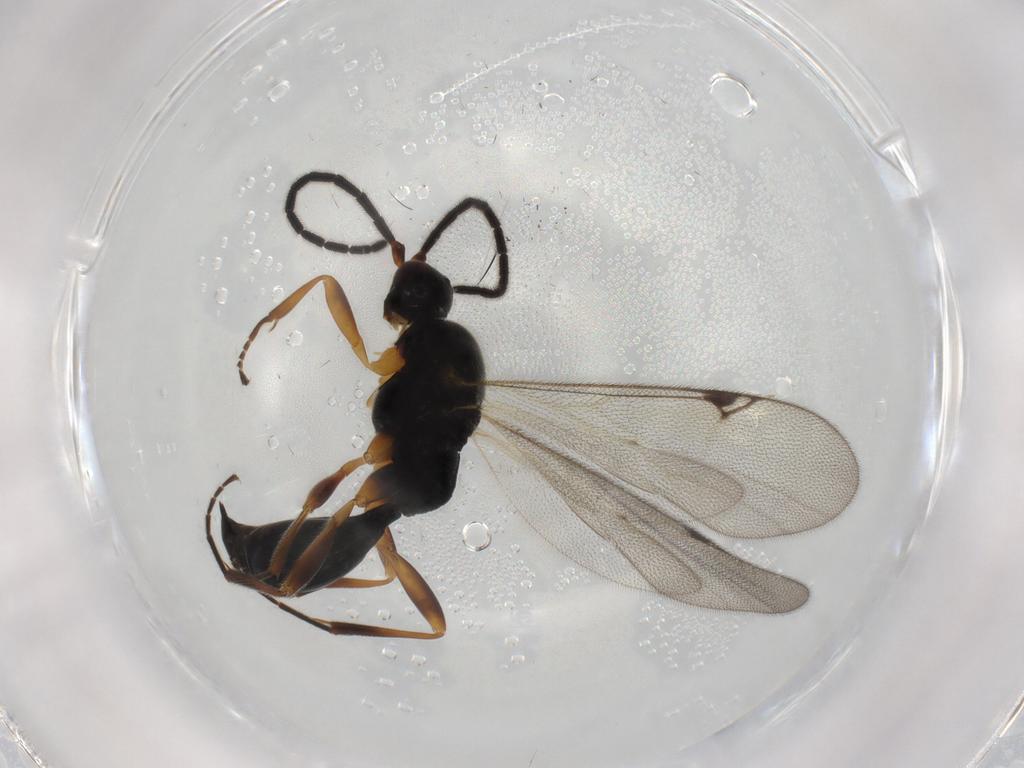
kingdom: Animalia
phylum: Arthropoda
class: Insecta
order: Hymenoptera
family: Proctotrupidae
